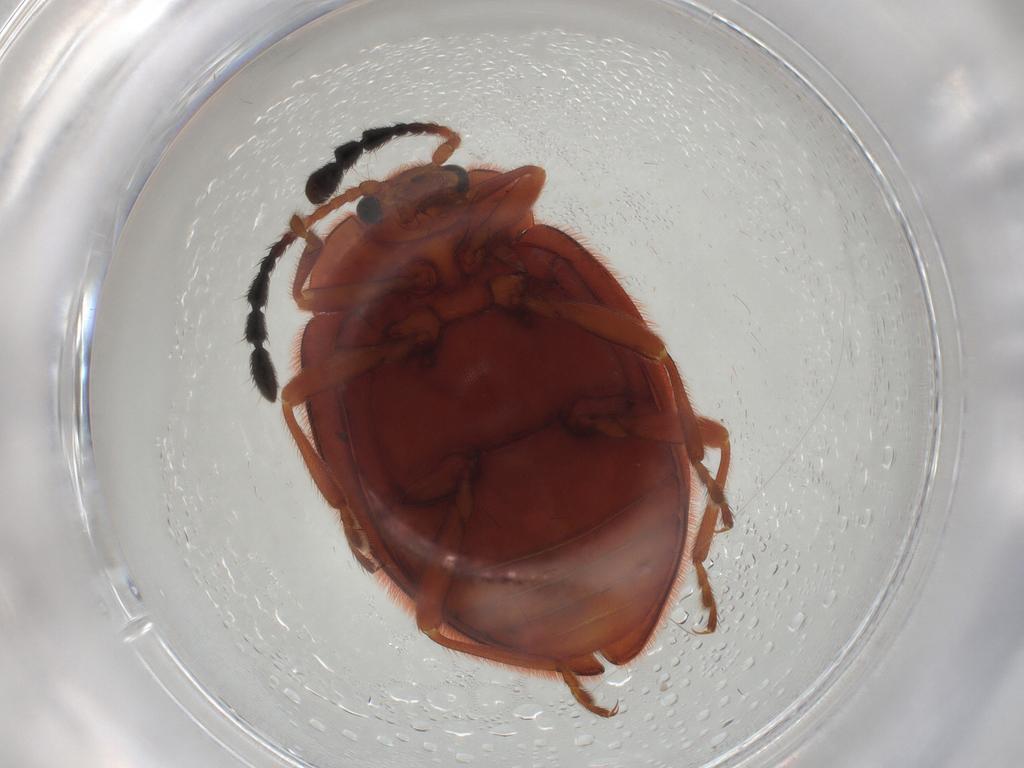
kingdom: Animalia
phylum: Arthropoda
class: Insecta
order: Coleoptera
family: Endomychidae
